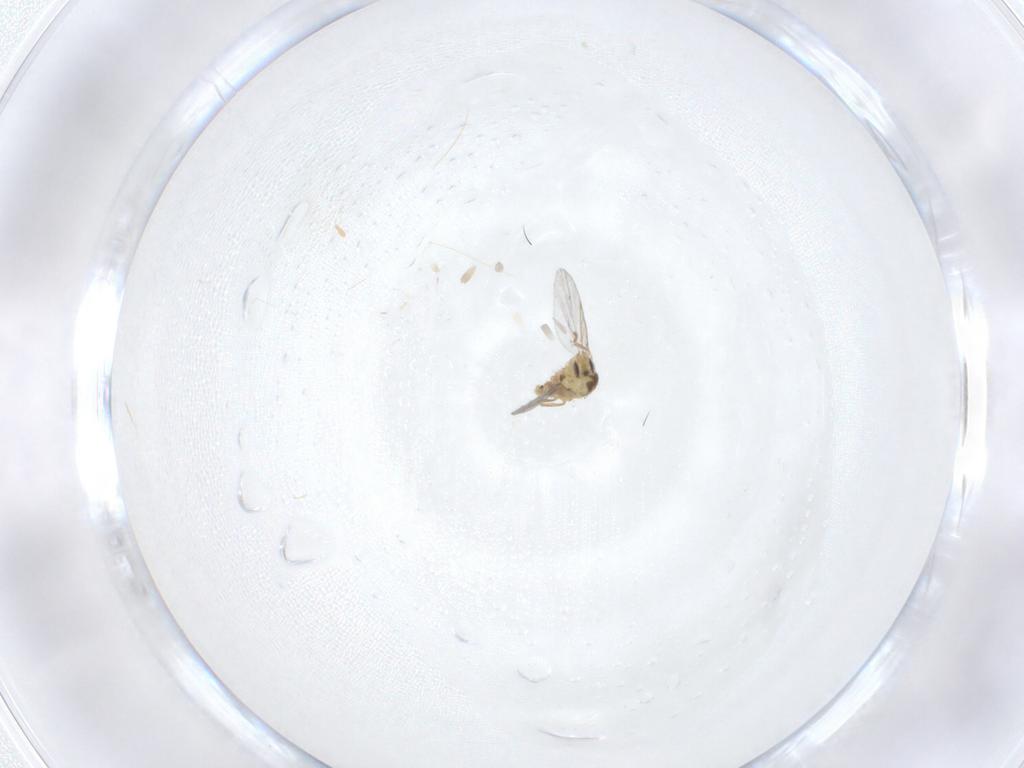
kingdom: Animalia
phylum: Arthropoda
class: Insecta
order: Diptera
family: Agromyzidae
